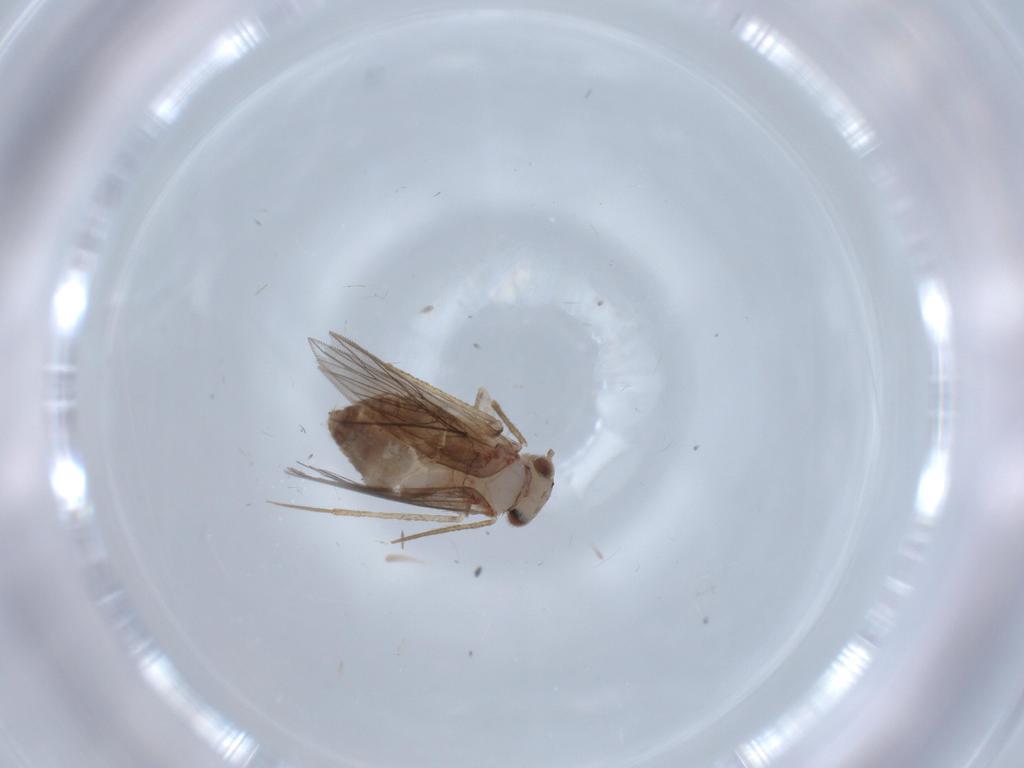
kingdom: Animalia
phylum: Arthropoda
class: Insecta
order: Psocodea
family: Lepidopsocidae
